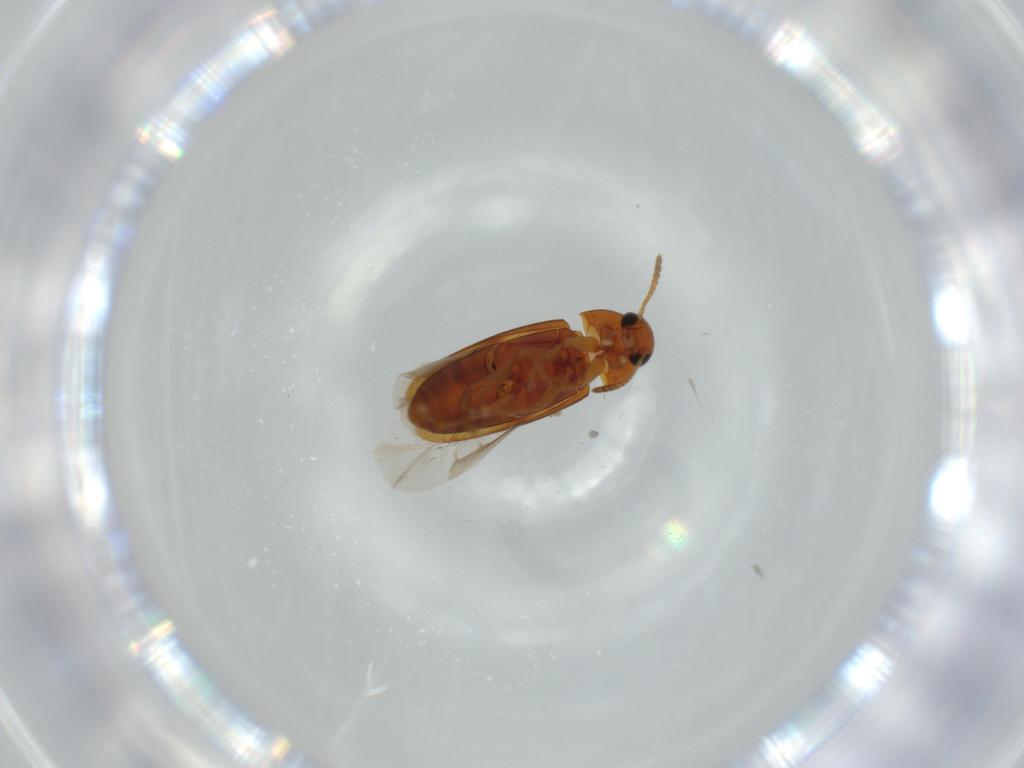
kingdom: Animalia
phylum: Arthropoda
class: Insecta
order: Coleoptera
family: Scraptiidae
